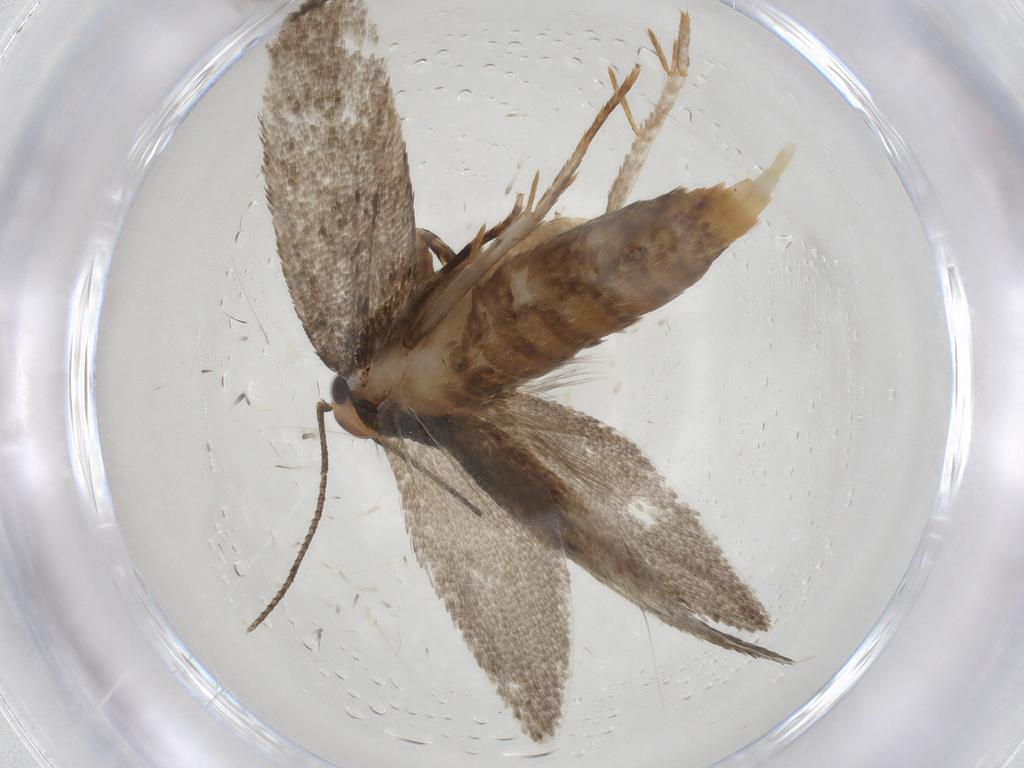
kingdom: Animalia
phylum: Arthropoda
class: Insecta
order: Lepidoptera
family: Oecophoridae
